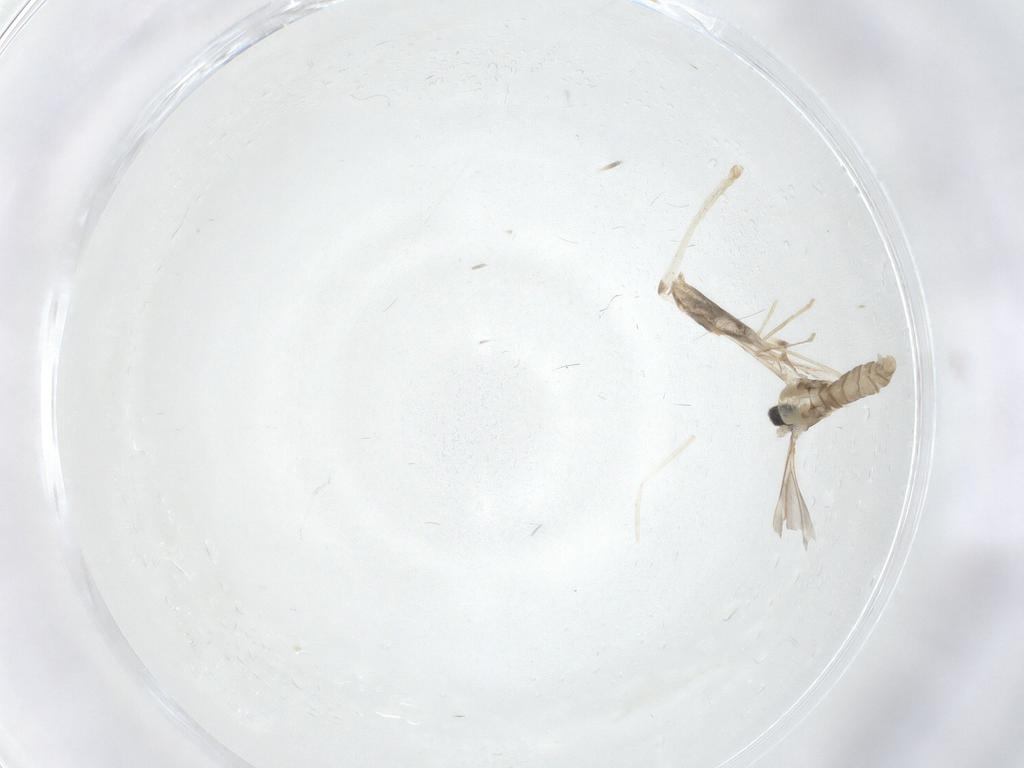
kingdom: Animalia
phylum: Arthropoda
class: Insecta
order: Diptera
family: Cecidomyiidae
